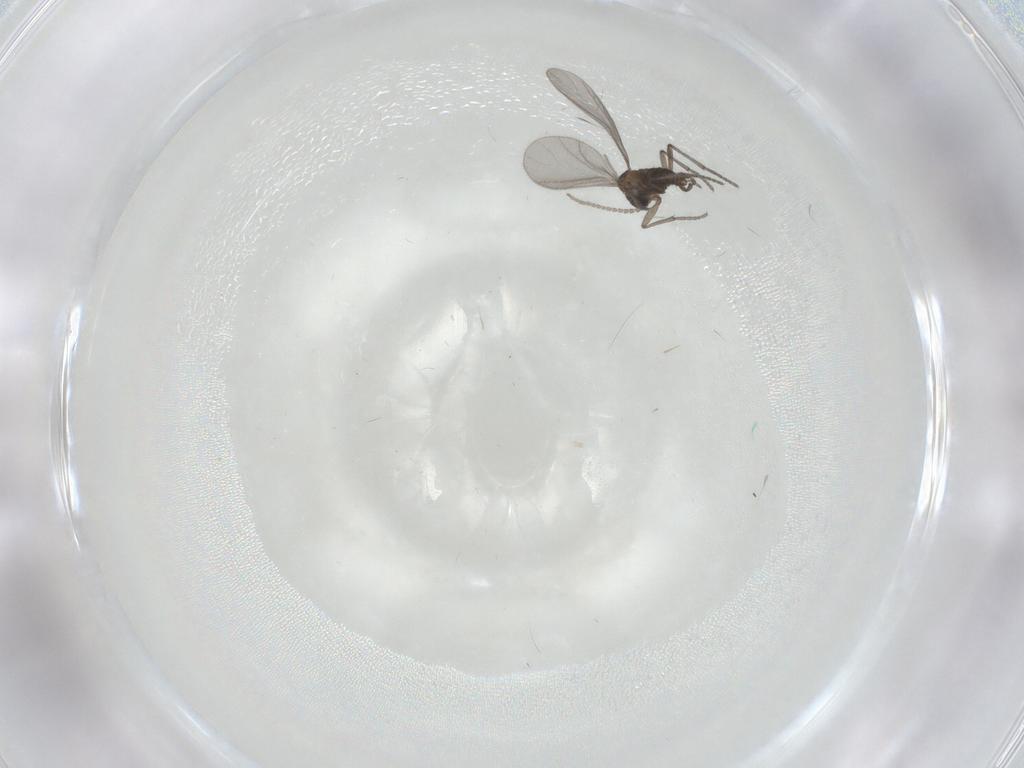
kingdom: Animalia
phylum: Arthropoda
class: Insecta
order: Diptera
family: Sciaridae
